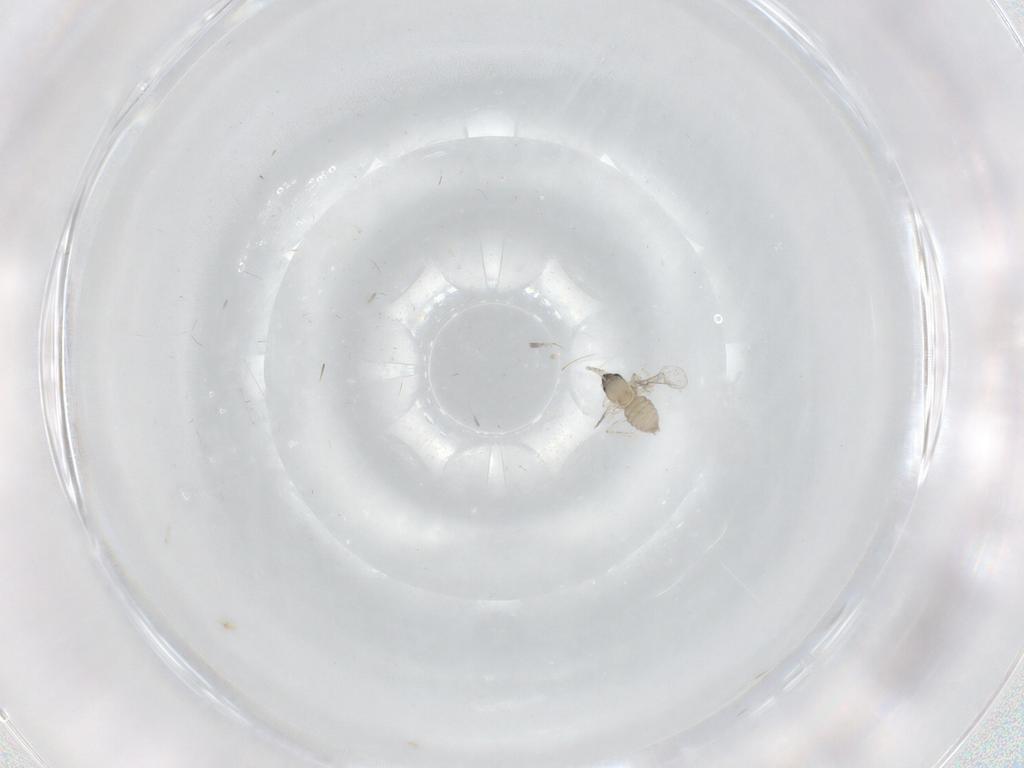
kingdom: Animalia
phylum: Arthropoda
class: Insecta
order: Diptera
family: Cecidomyiidae
